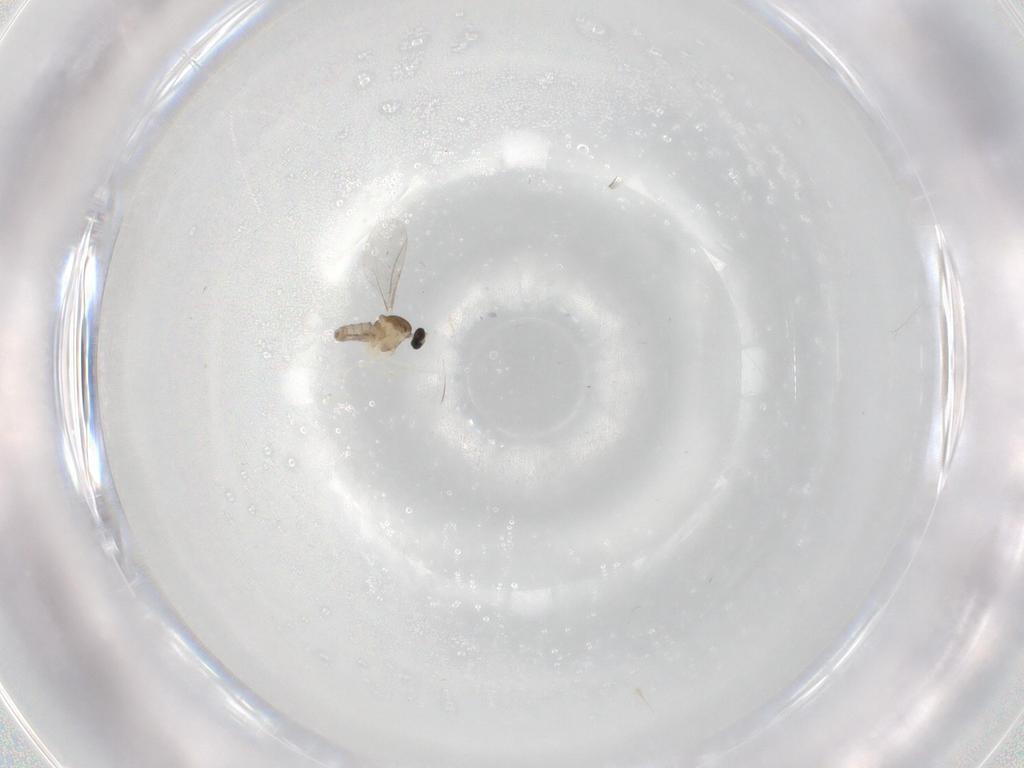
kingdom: Animalia
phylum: Arthropoda
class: Insecta
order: Diptera
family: Cecidomyiidae
